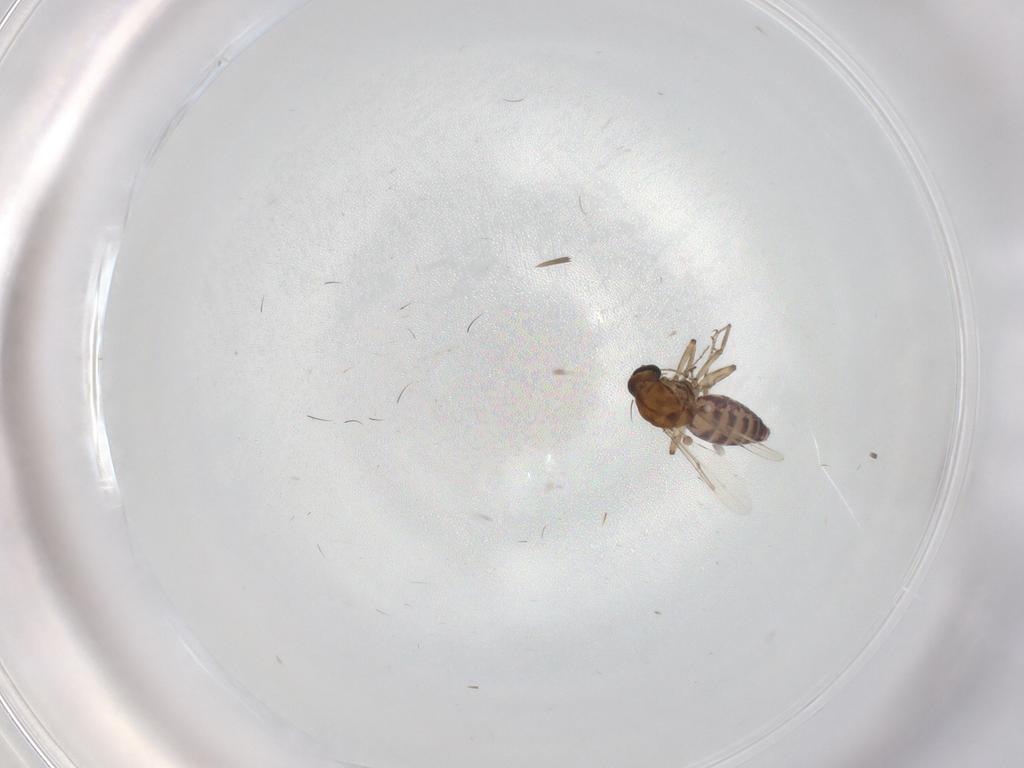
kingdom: Animalia
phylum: Arthropoda
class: Insecta
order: Diptera
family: Ceratopogonidae
